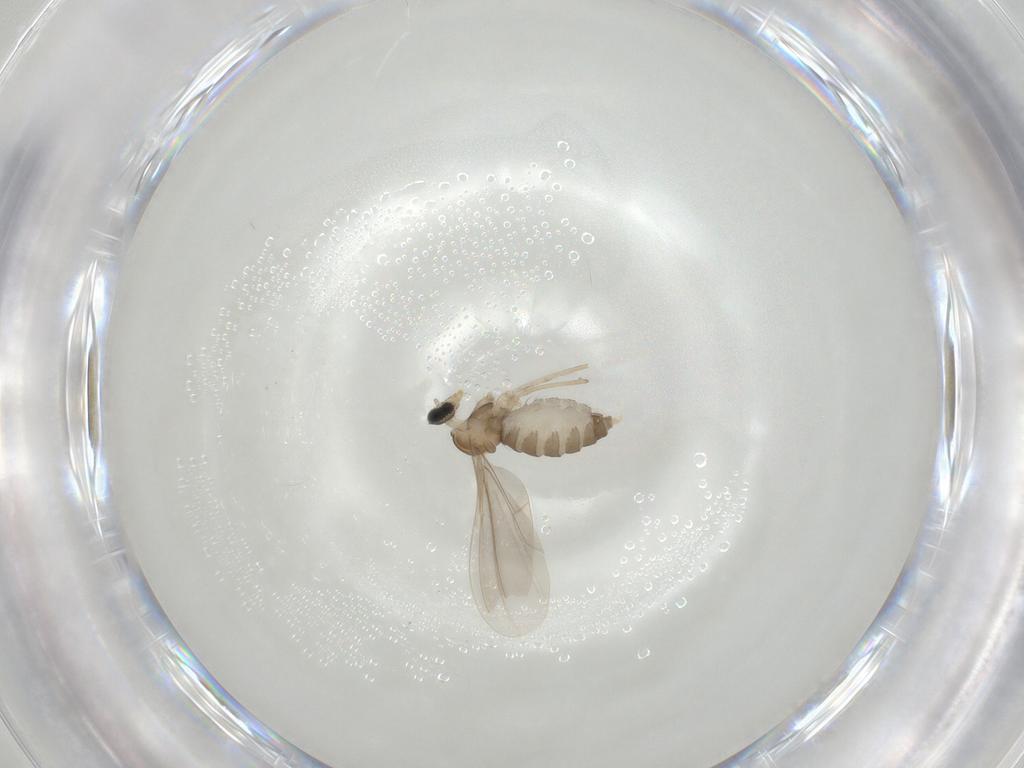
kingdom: Animalia
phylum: Arthropoda
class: Insecta
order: Diptera
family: Cecidomyiidae
